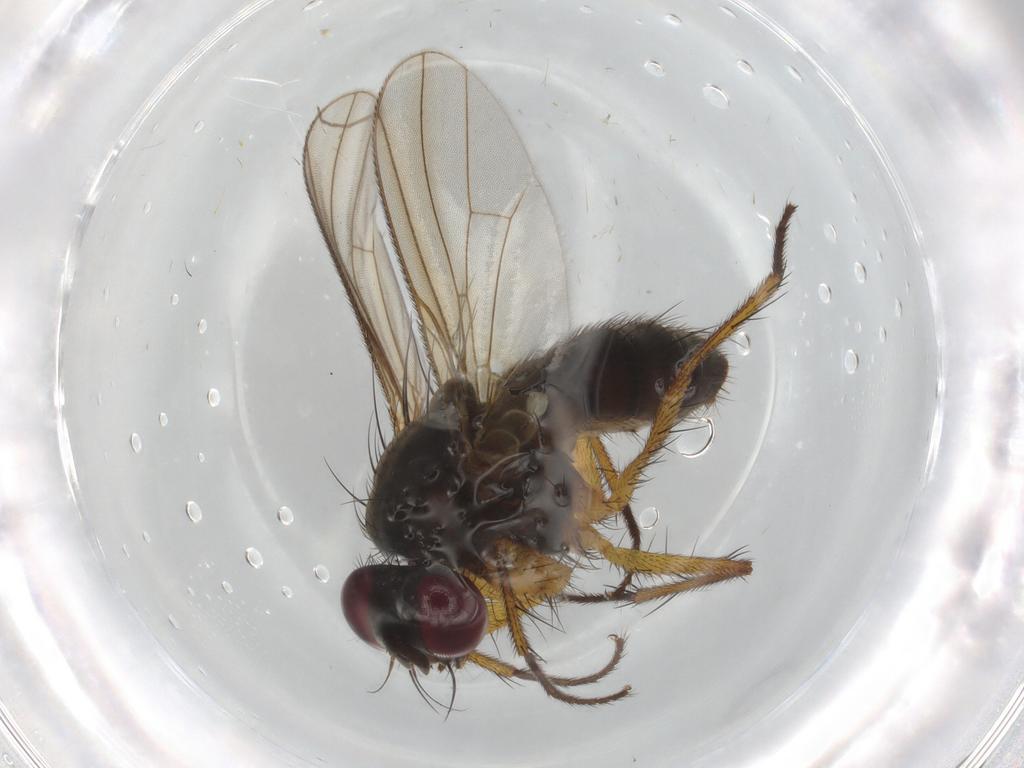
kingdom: Animalia
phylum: Arthropoda
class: Insecta
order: Diptera
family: Muscidae
